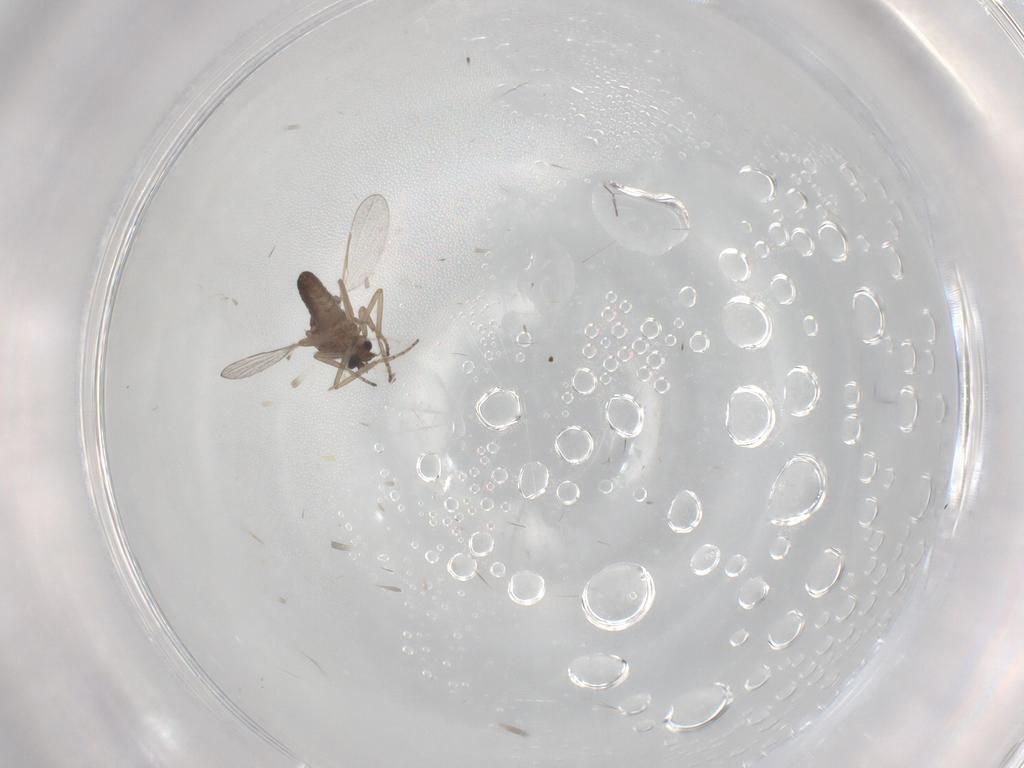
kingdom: Animalia
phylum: Arthropoda
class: Insecta
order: Diptera
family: Ceratopogonidae
